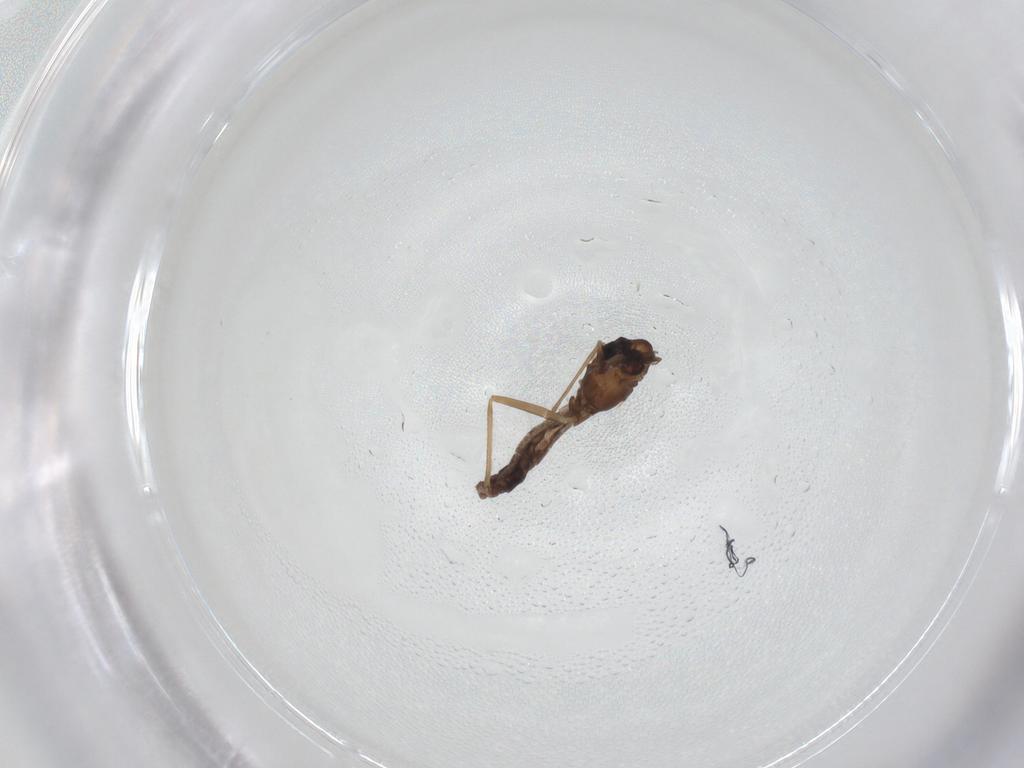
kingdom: Animalia
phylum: Arthropoda
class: Insecta
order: Diptera
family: Chironomidae
